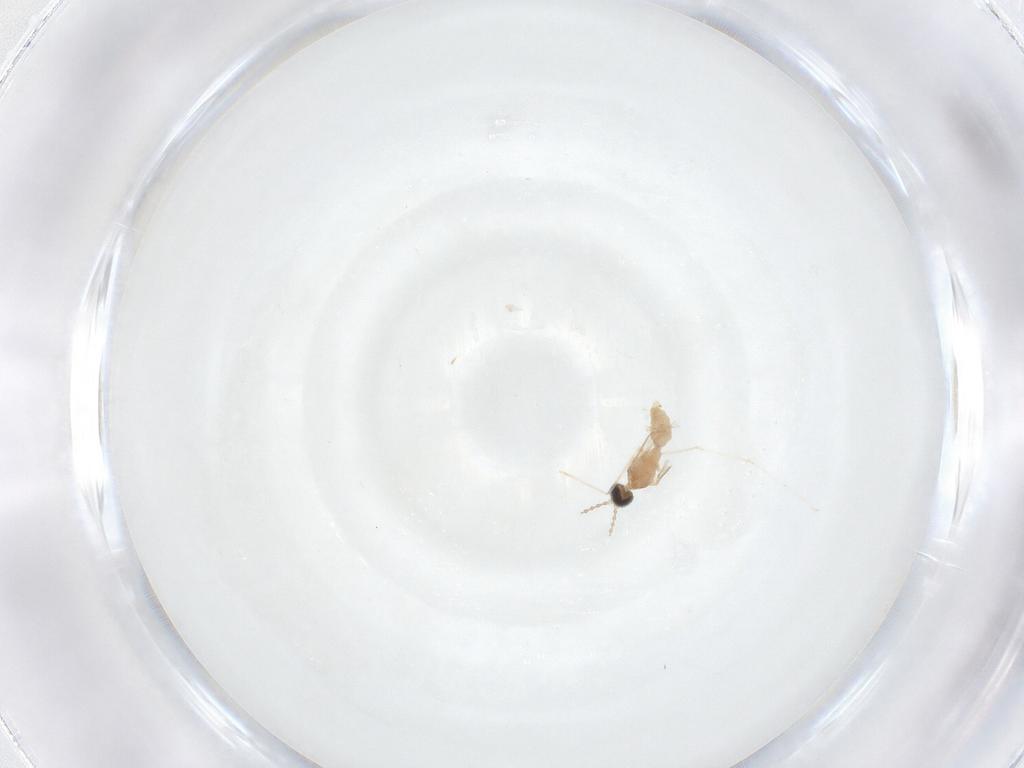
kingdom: Animalia
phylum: Arthropoda
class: Insecta
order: Diptera
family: Cecidomyiidae
